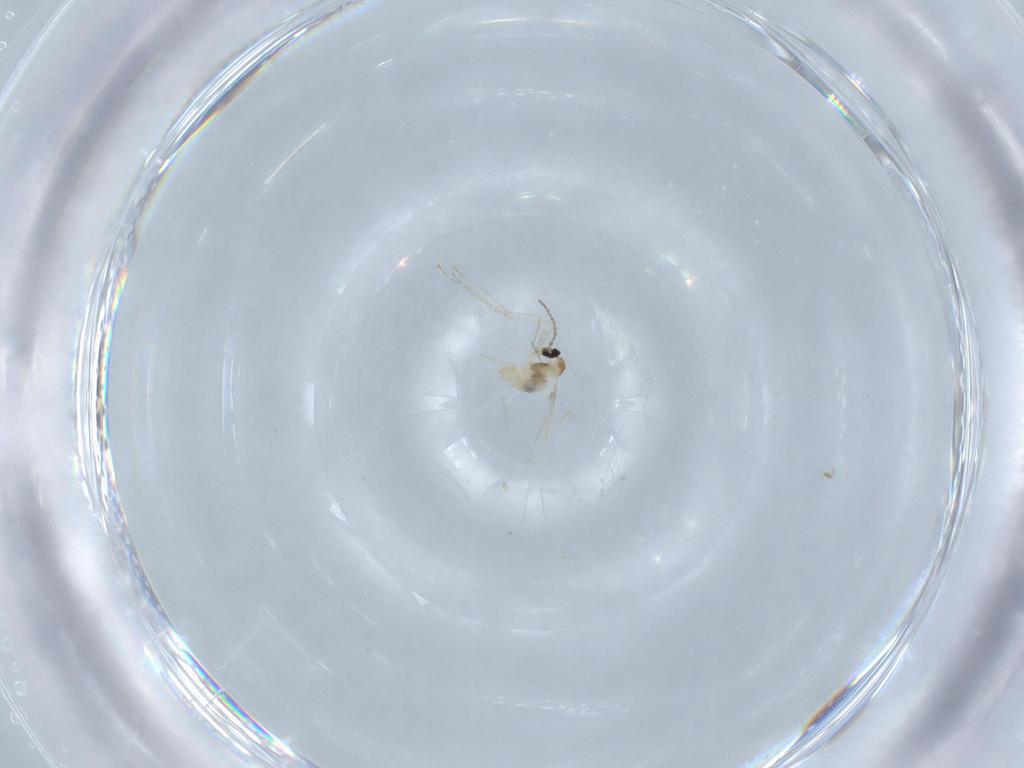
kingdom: Animalia
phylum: Arthropoda
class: Insecta
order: Diptera
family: Cecidomyiidae
